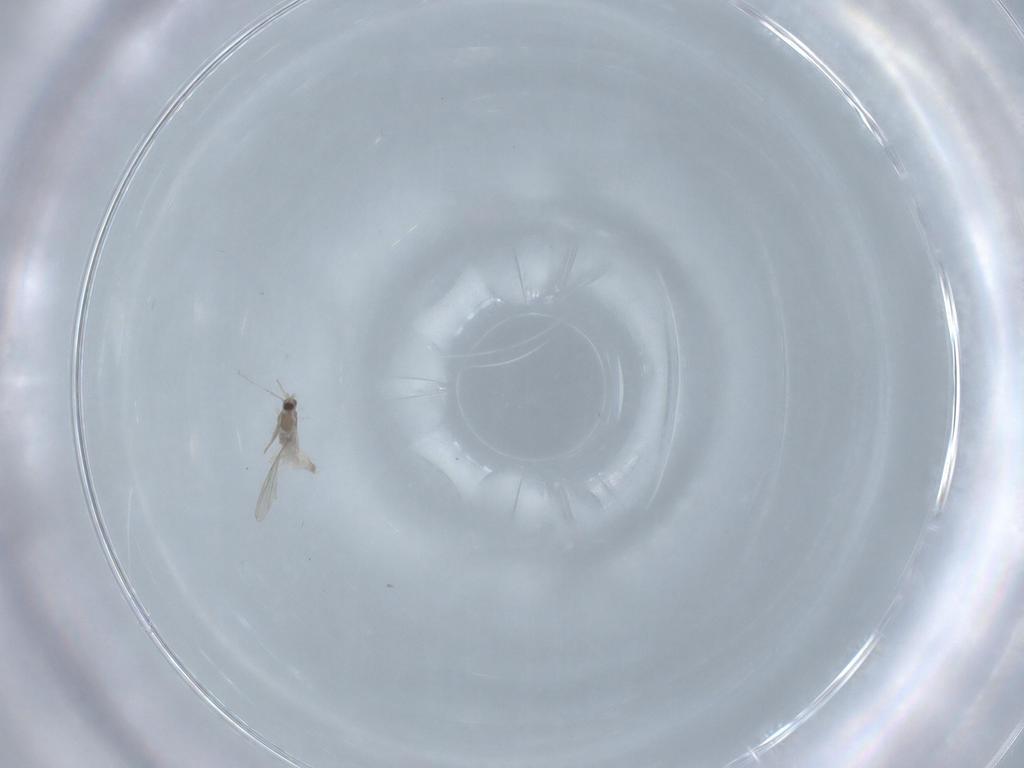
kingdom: Animalia
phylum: Arthropoda
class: Insecta
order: Diptera
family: Cecidomyiidae
